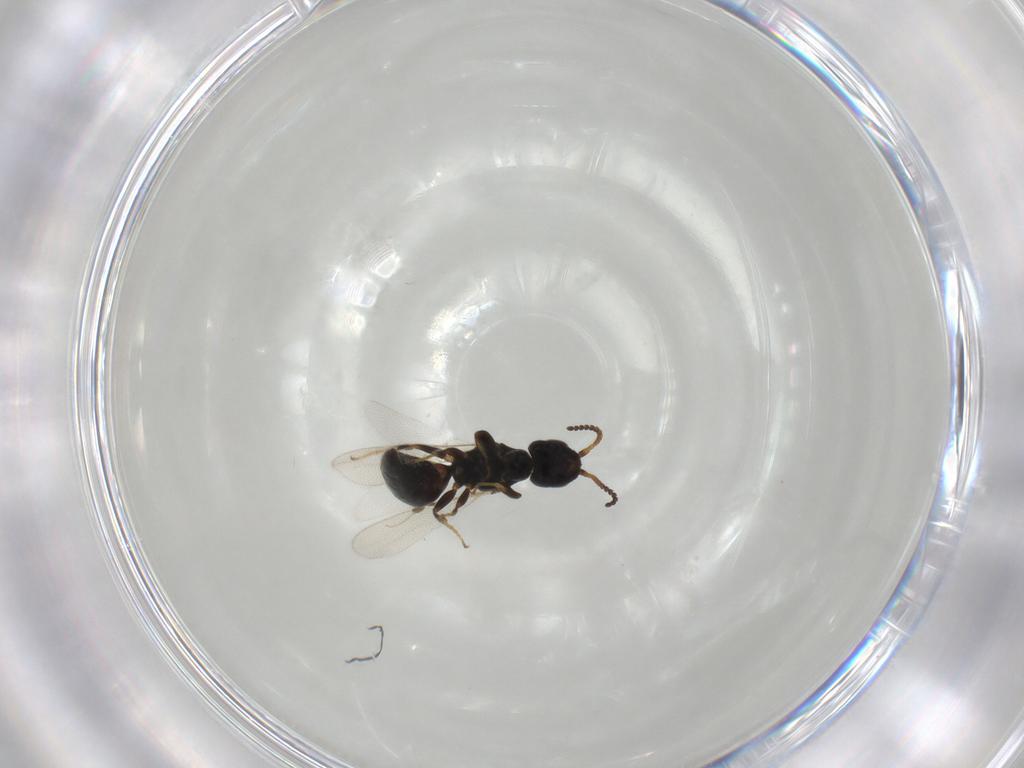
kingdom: Animalia
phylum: Arthropoda
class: Insecta
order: Hymenoptera
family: Bethylidae
